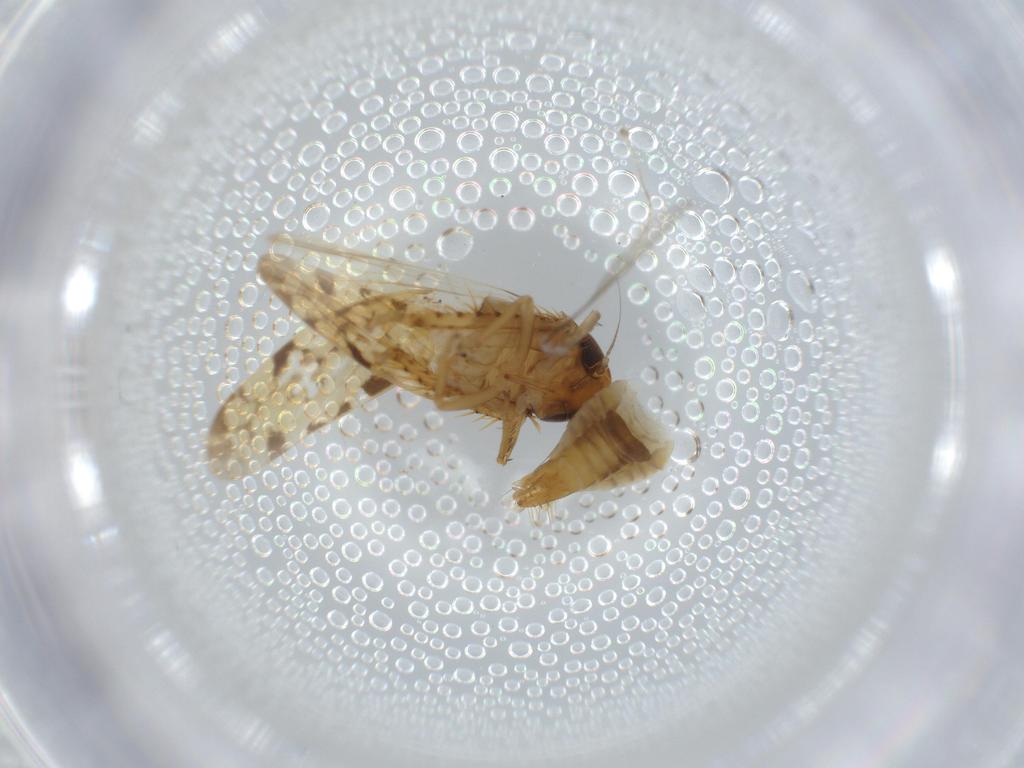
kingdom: Animalia
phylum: Arthropoda
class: Insecta
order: Hemiptera
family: Cicadellidae
